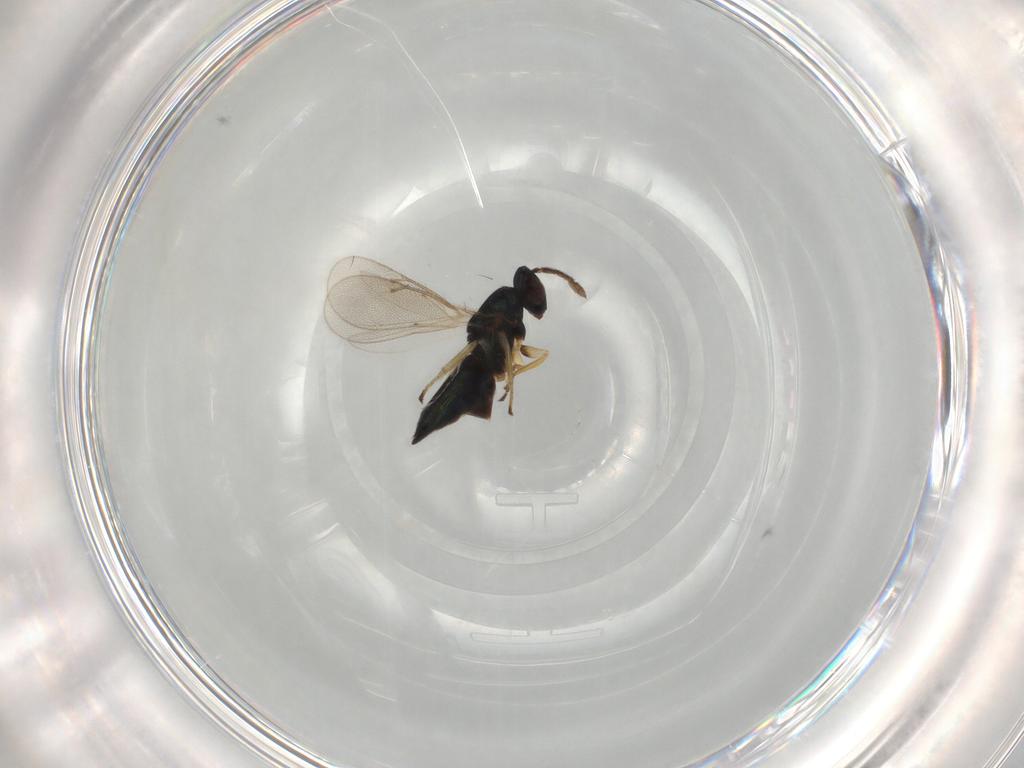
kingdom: Animalia
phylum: Arthropoda
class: Insecta
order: Hymenoptera
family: Eulophidae
